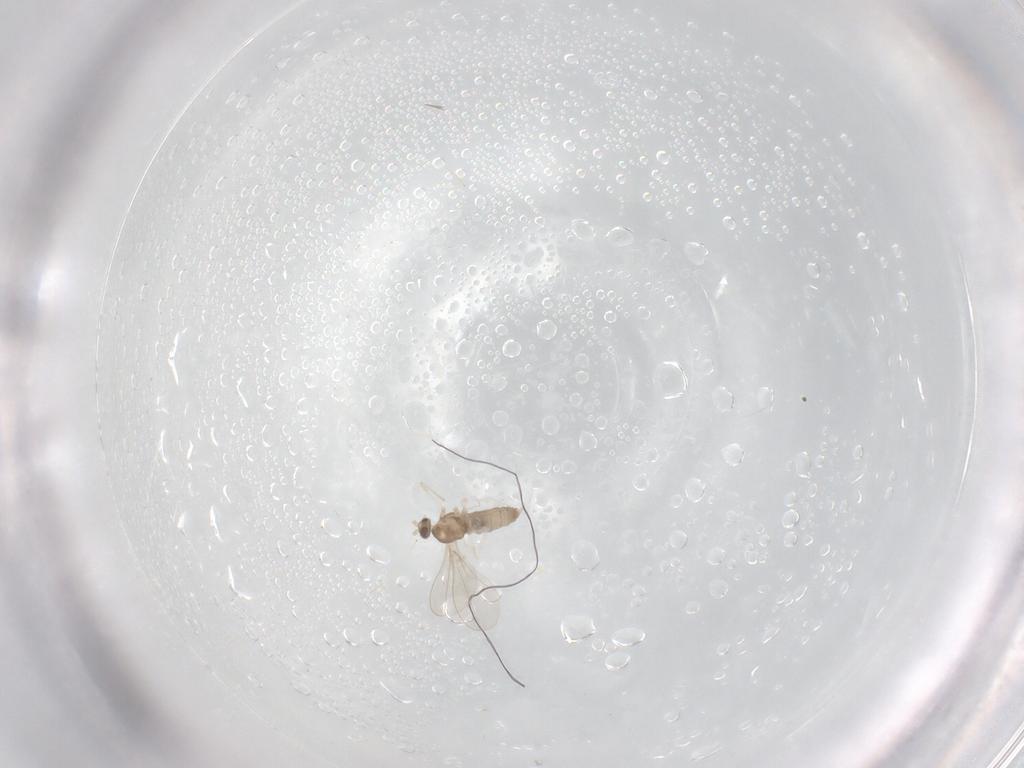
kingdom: Animalia
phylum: Arthropoda
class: Insecta
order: Diptera
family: Cecidomyiidae
